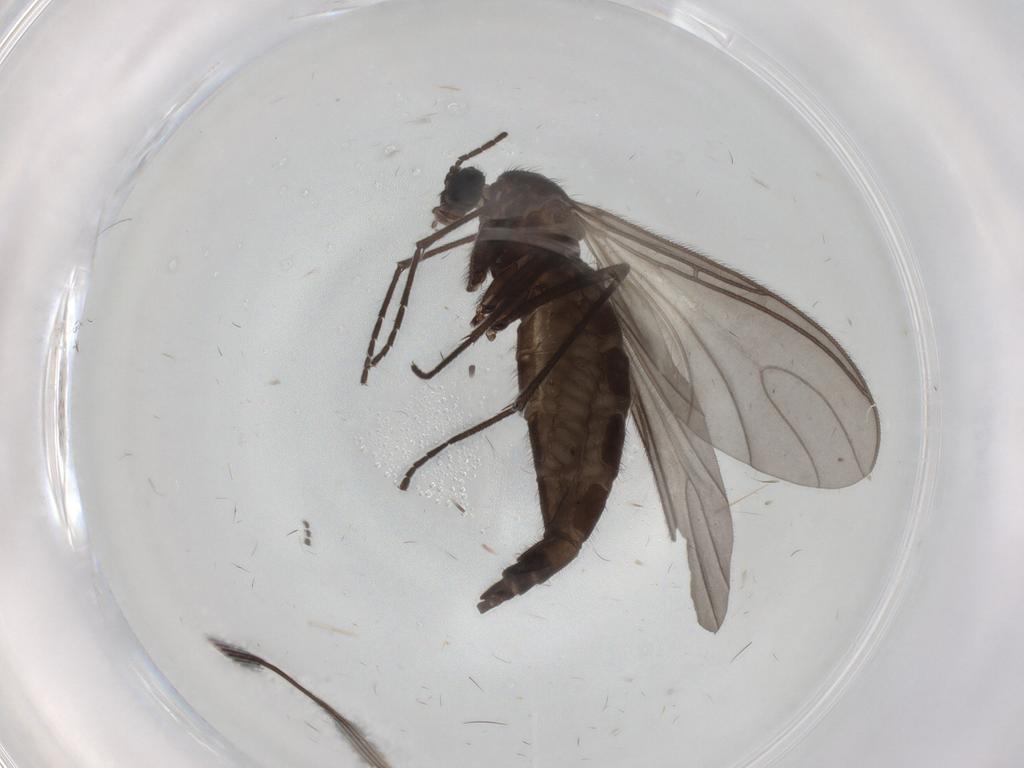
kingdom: Animalia
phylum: Arthropoda
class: Insecta
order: Diptera
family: Sciaridae
